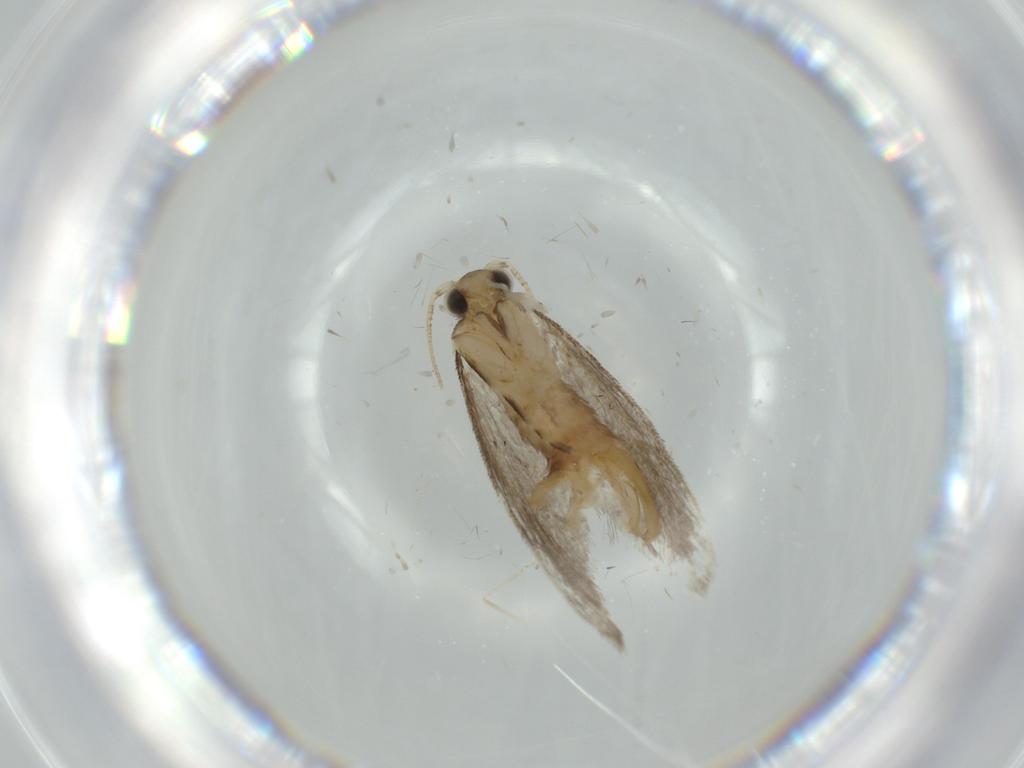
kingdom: Animalia
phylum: Arthropoda
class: Insecta
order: Lepidoptera
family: Tineidae
